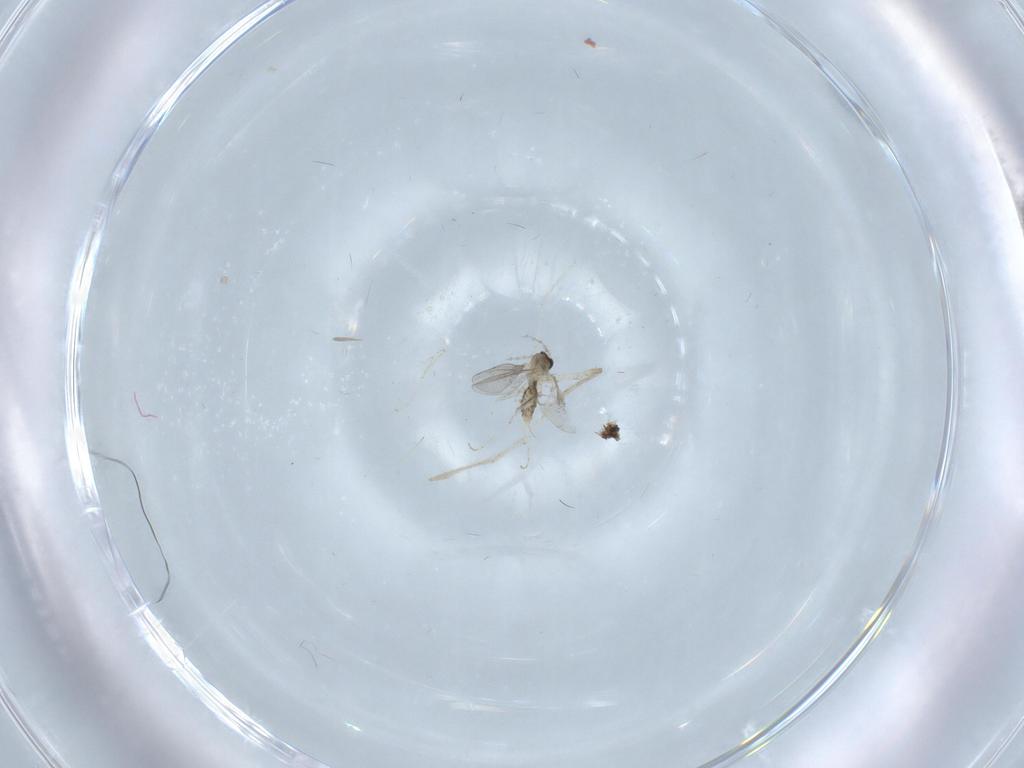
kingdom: Animalia
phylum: Arthropoda
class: Insecta
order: Diptera
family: Cecidomyiidae
